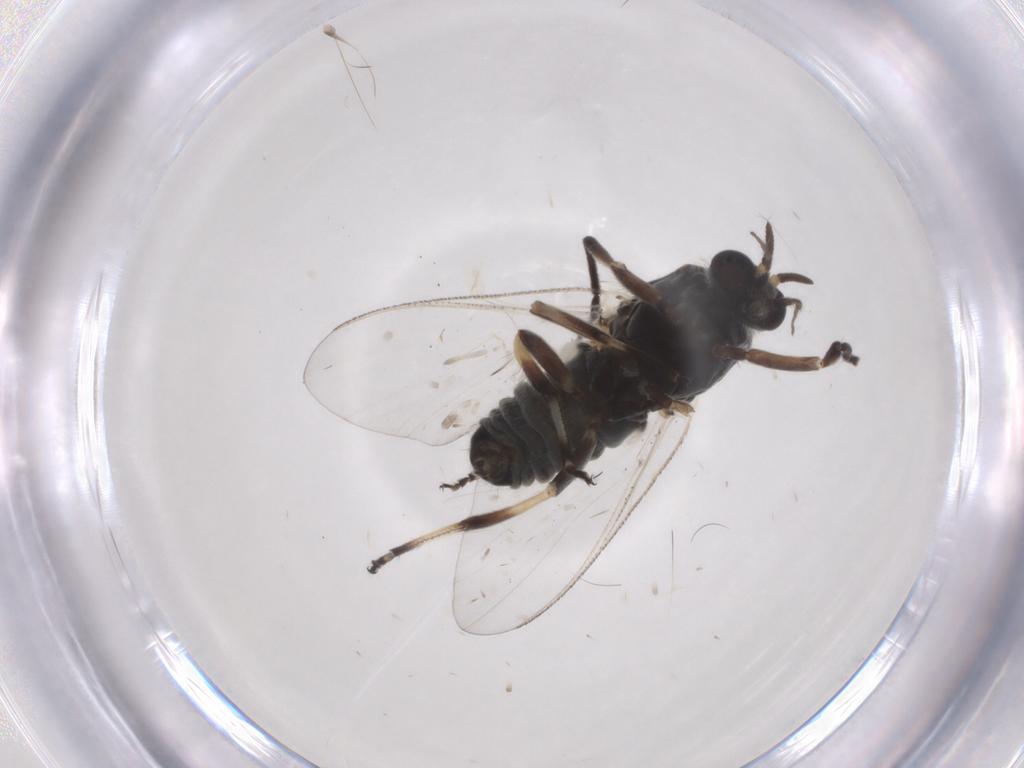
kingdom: Animalia
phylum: Arthropoda
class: Insecta
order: Diptera
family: Simuliidae
